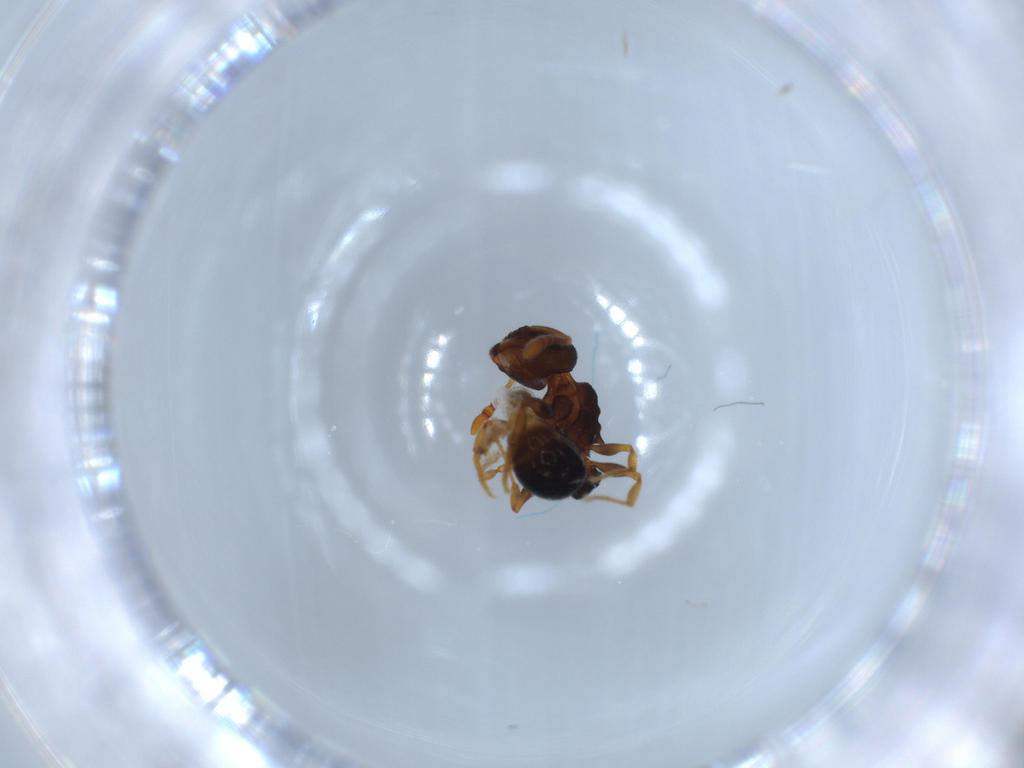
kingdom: Animalia
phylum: Arthropoda
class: Insecta
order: Hymenoptera
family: Formicidae
